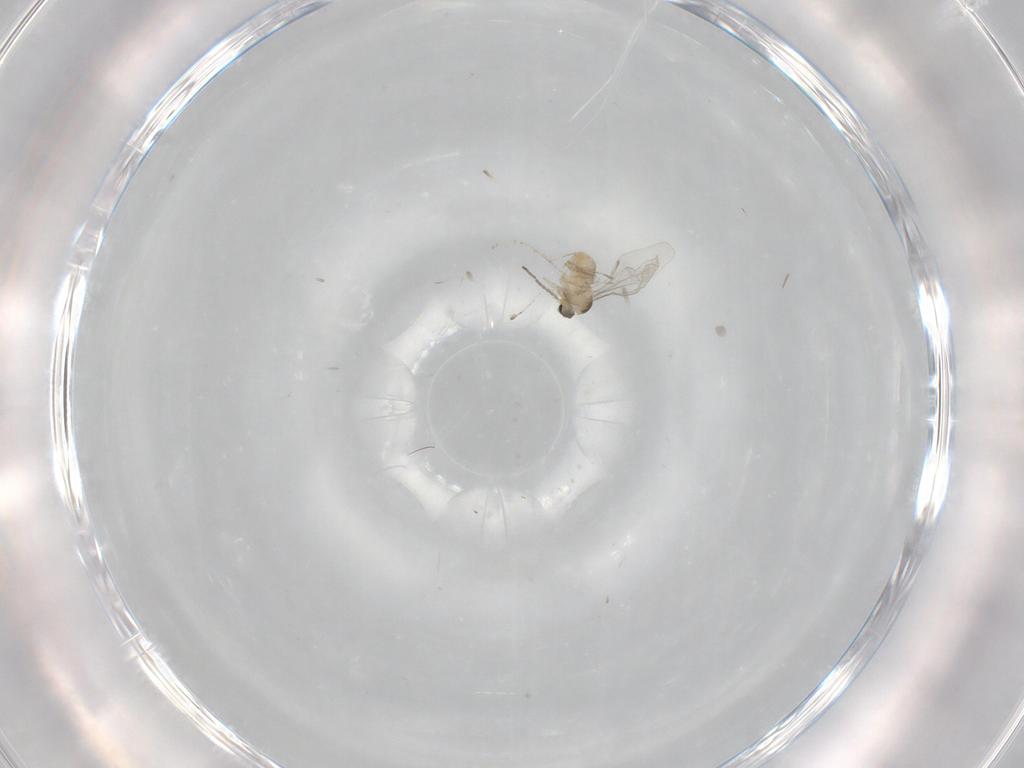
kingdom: Animalia
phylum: Arthropoda
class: Insecta
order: Diptera
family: Cecidomyiidae
